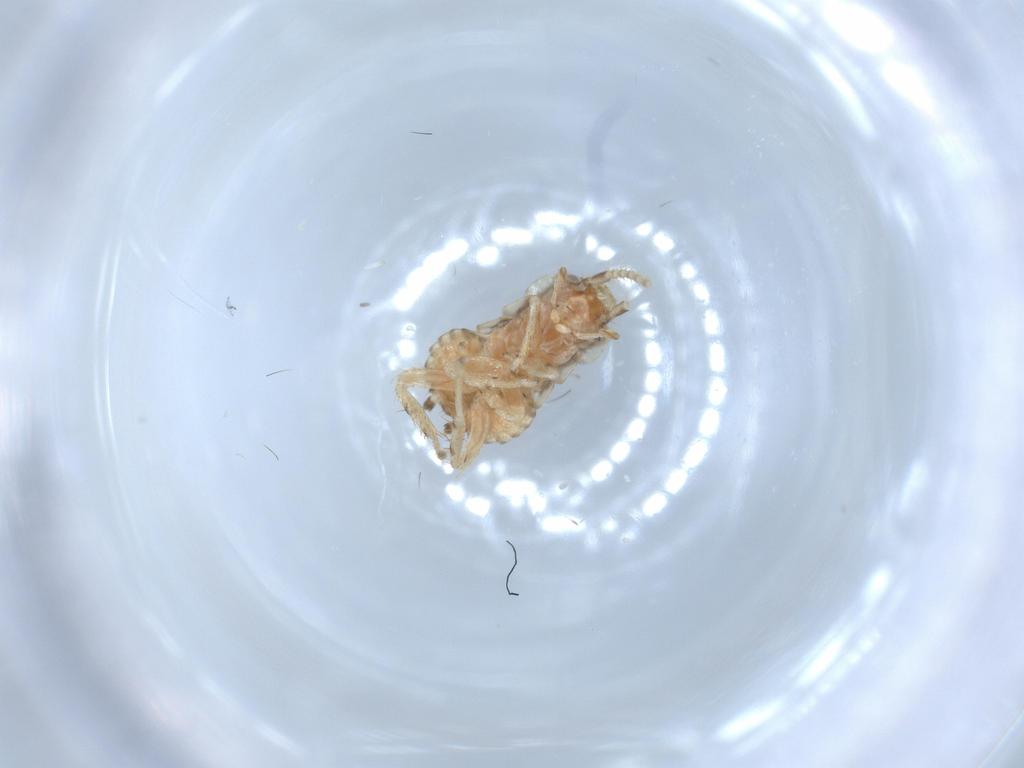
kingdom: Animalia
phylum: Arthropoda
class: Insecta
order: Blattodea
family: Ectobiidae
